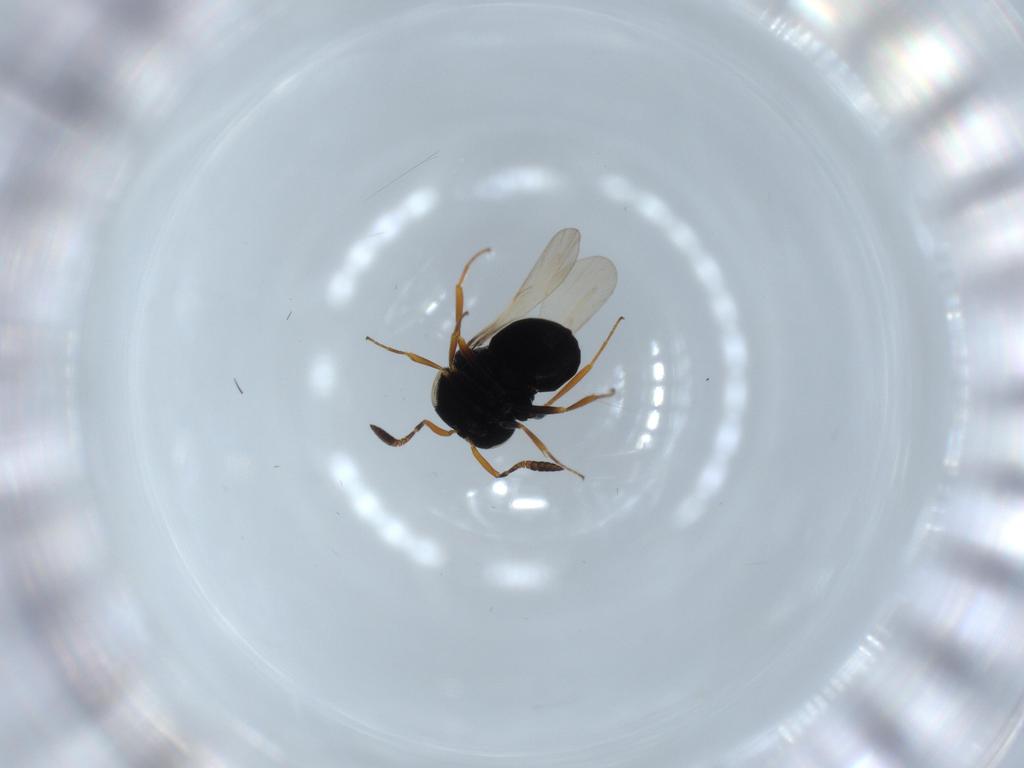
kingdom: Animalia
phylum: Arthropoda
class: Insecta
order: Hymenoptera
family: Scelionidae
